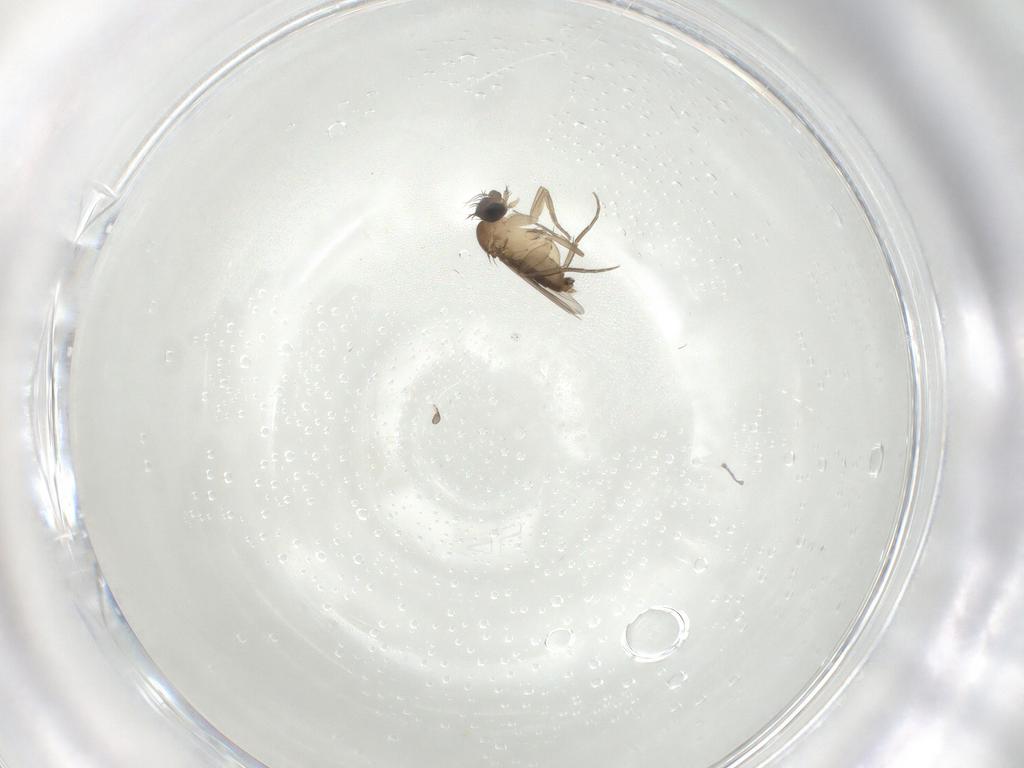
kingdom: Animalia
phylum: Arthropoda
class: Insecta
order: Diptera
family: Phoridae
